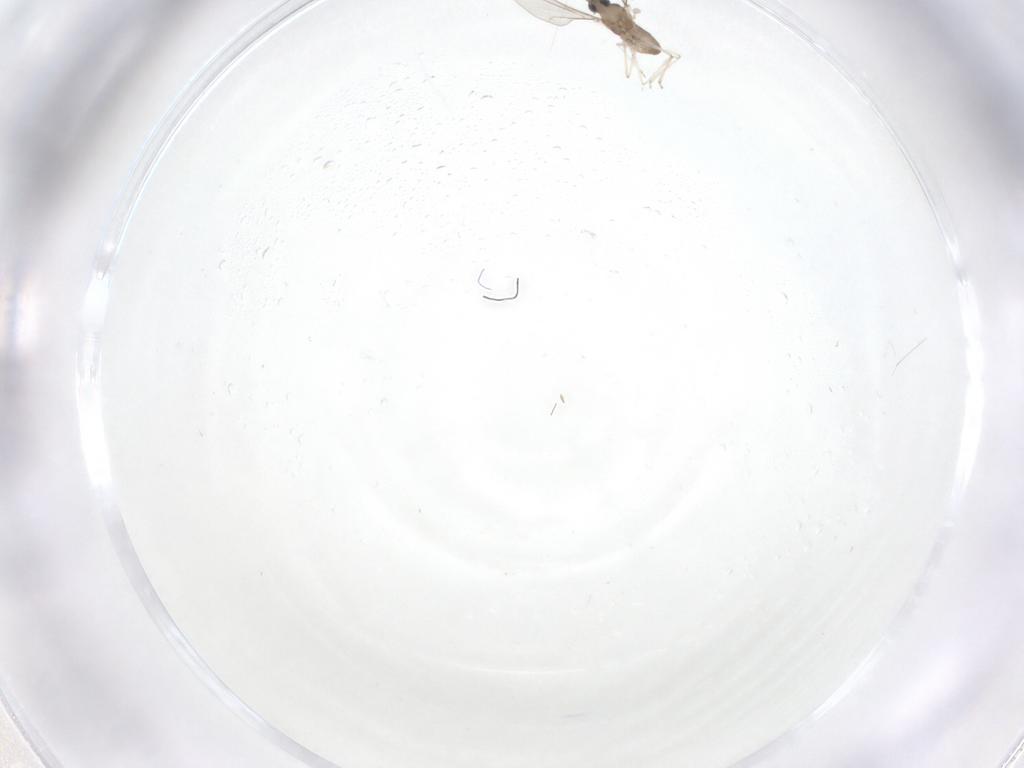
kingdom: Animalia
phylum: Arthropoda
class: Insecta
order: Diptera
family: Cecidomyiidae
